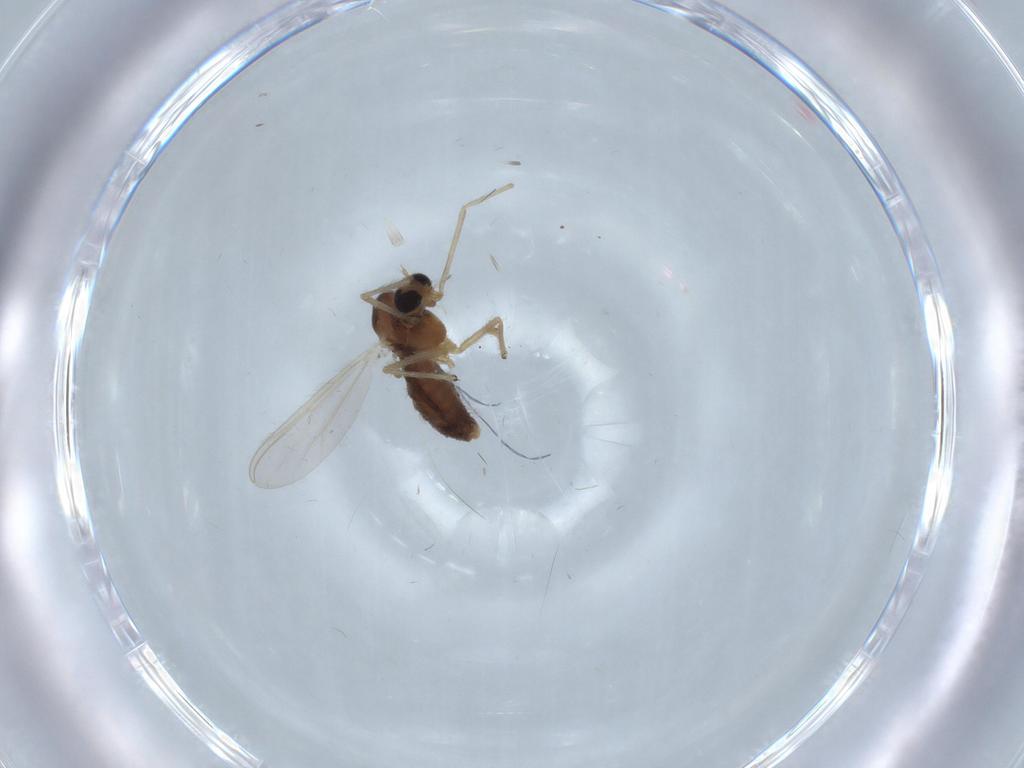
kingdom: Animalia
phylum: Arthropoda
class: Insecta
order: Diptera
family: Chironomidae
